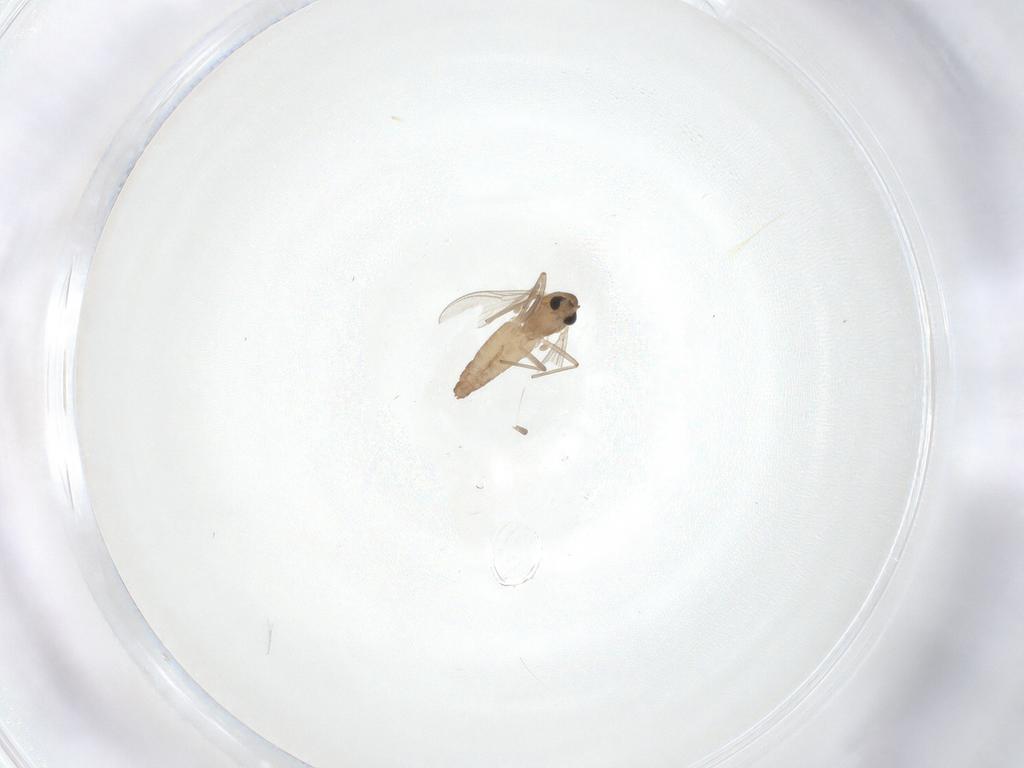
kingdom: Animalia
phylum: Arthropoda
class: Insecta
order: Diptera
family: Chironomidae
